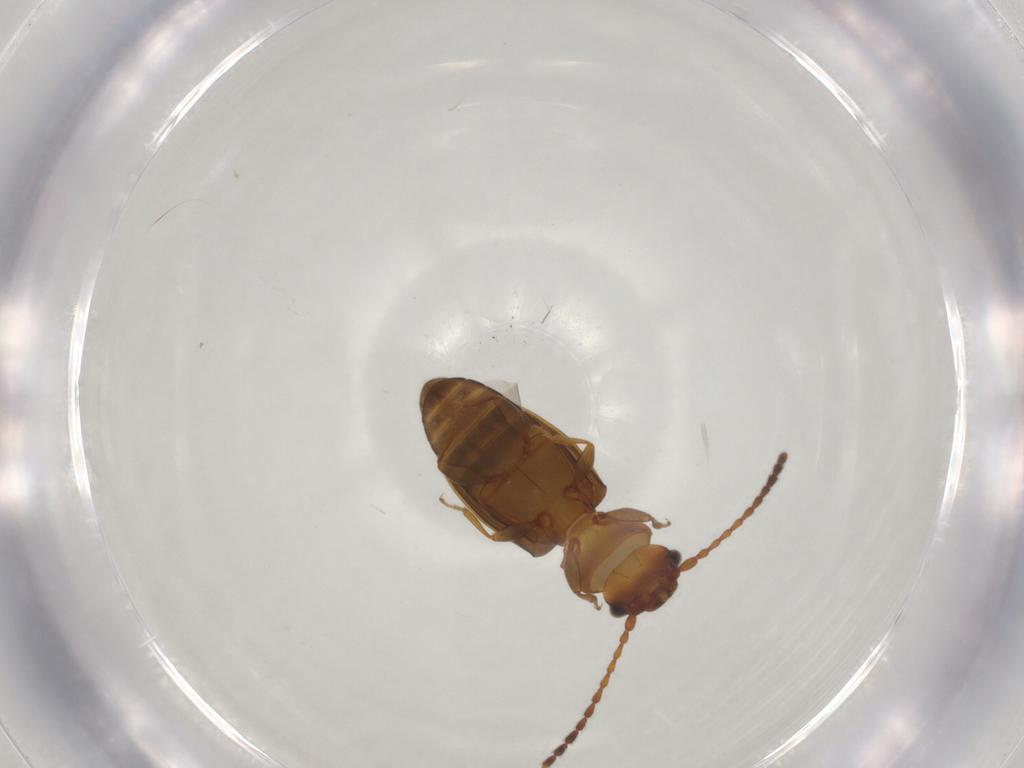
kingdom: Animalia
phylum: Arthropoda
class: Insecta
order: Coleoptera
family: Laemophloeidae
